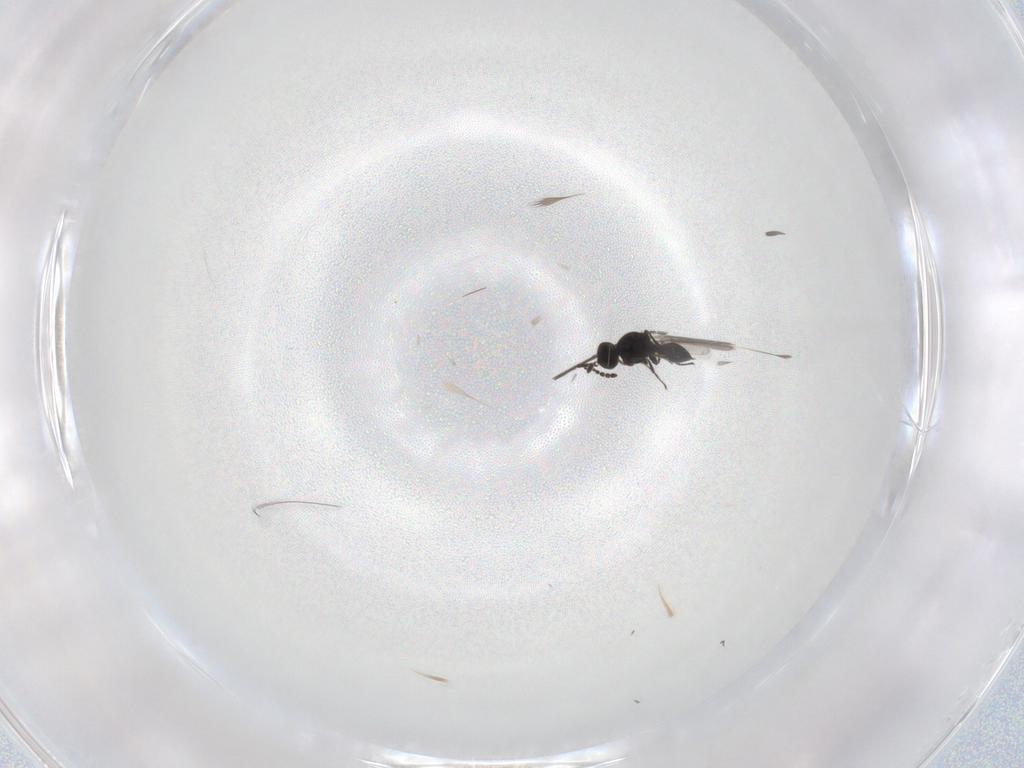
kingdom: Animalia
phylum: Arthropoda
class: Insecta
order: Hymenoptera
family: Platygastridae
